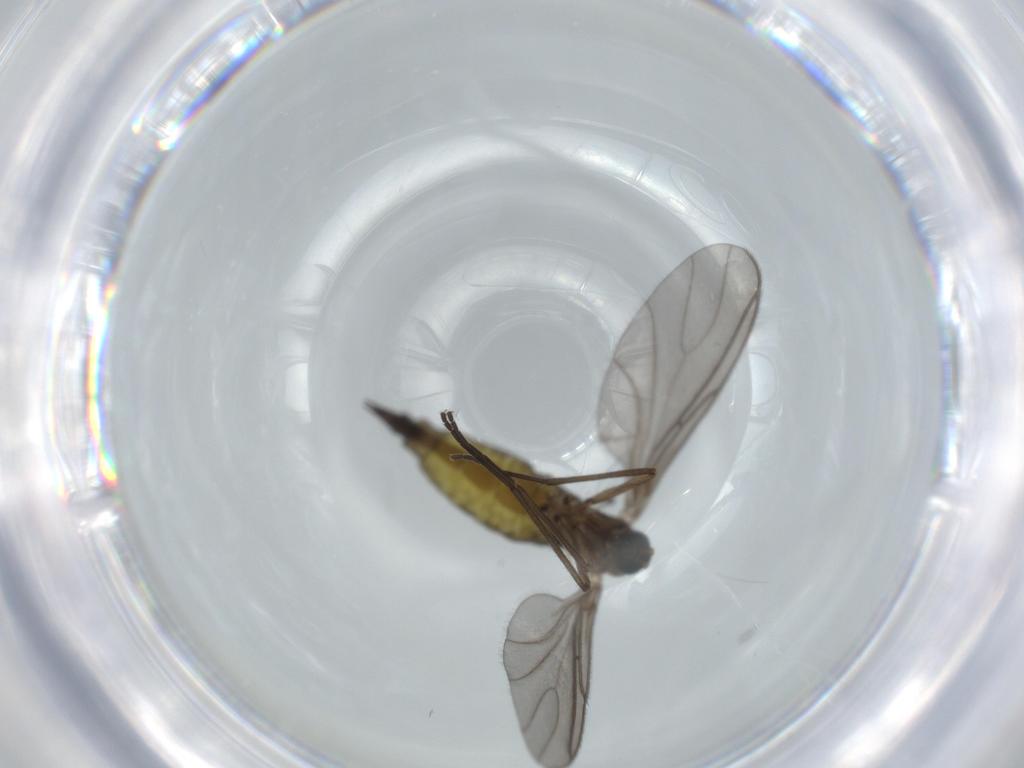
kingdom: Animalia
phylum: Arthropoda
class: Insecta
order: Diptera
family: Sciaridae
